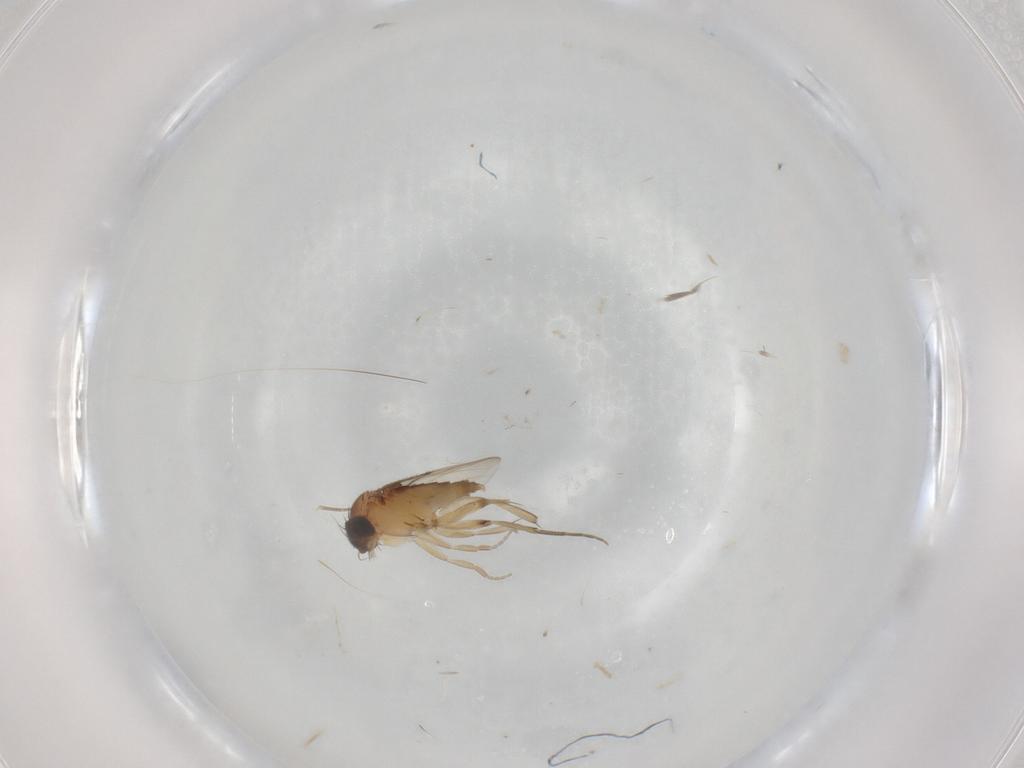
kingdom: Animalia
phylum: Arthropoda
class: Insecta
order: Diptera
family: Phoridae
